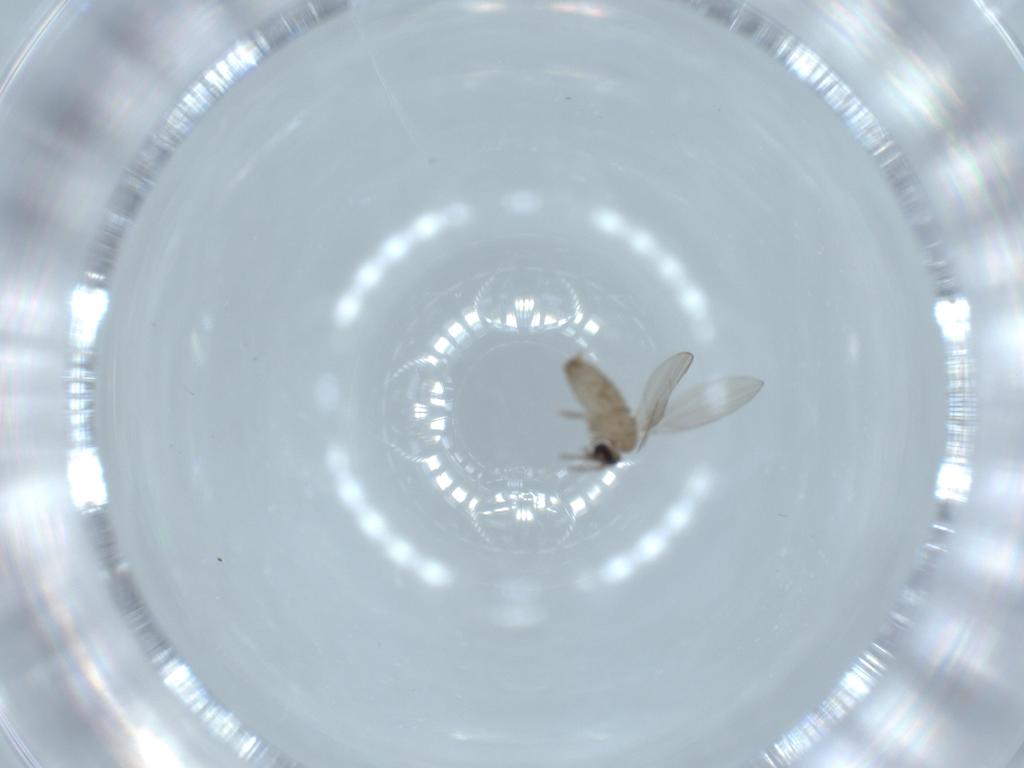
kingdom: Animalia
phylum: Arthropoda
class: Insecta
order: Diptera
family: Psychodidae
